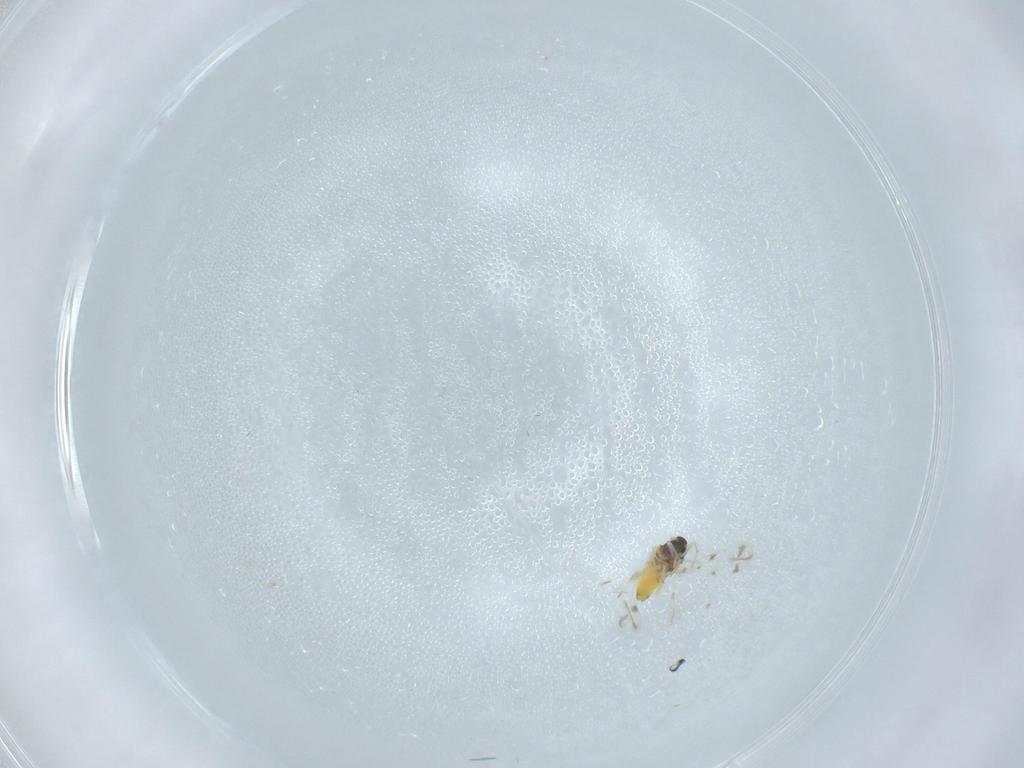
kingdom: Animalia
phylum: Arthropoda
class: Insecta
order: Hemiptera
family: Aleyrodidae
